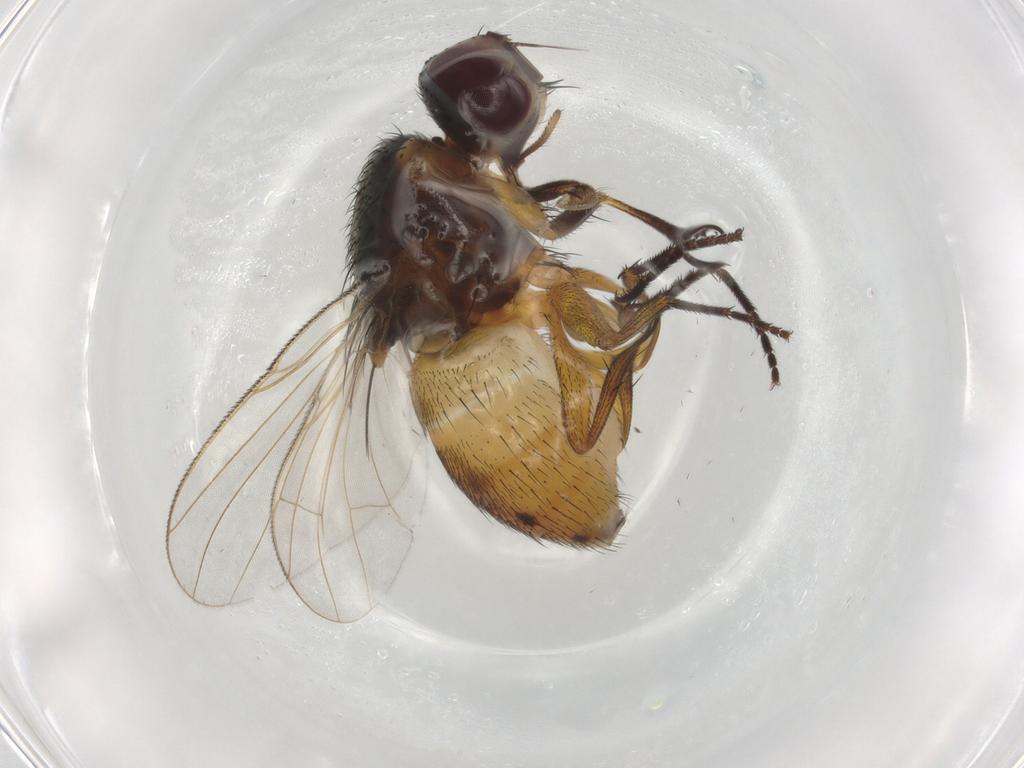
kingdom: Animalia
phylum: Arthropoda
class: Insecta
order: Diptera
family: Muscidae
